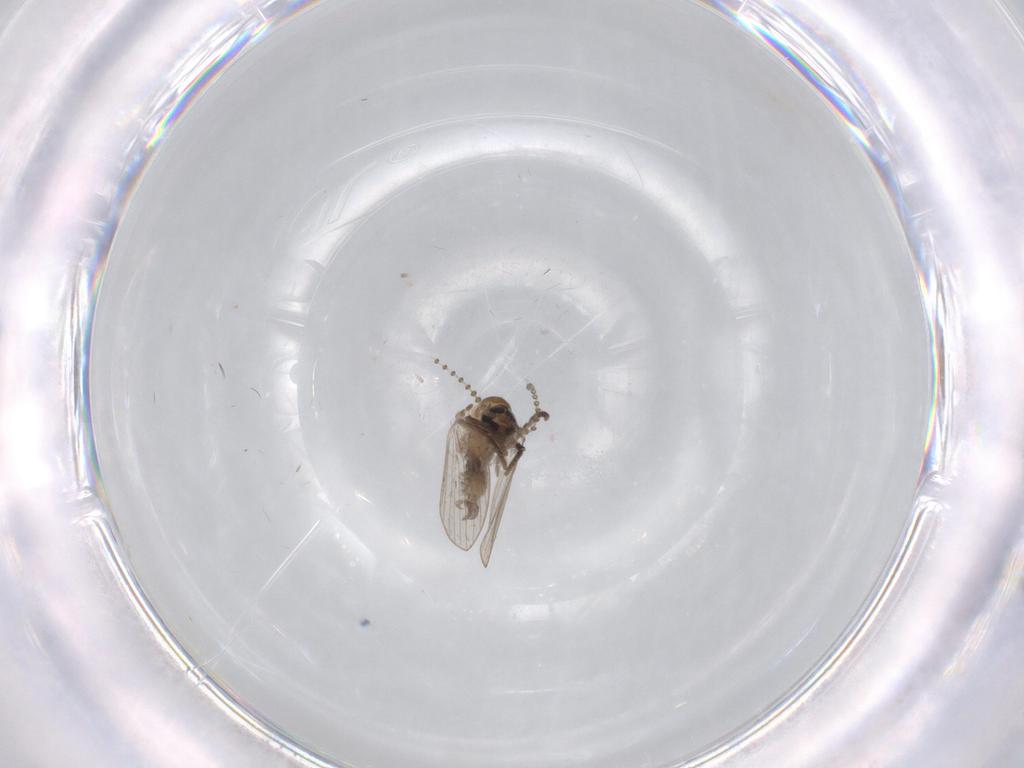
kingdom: Animalia
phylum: Arthropoda
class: Insecta
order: Diptera
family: Psychodidae
